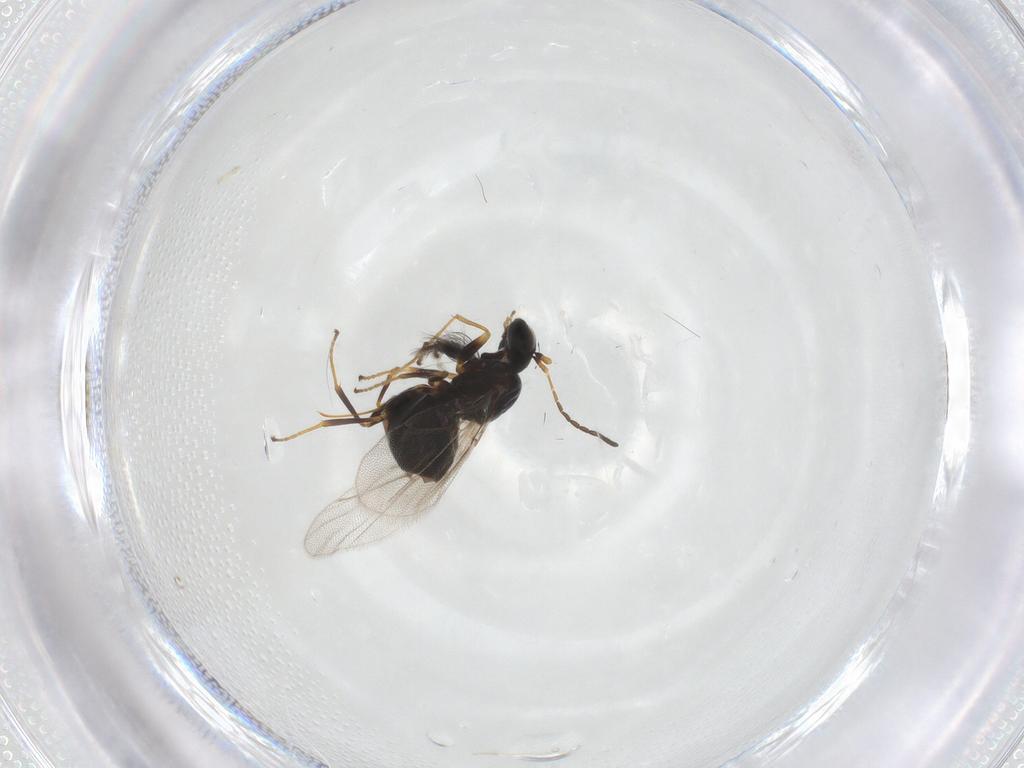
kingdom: Animalia
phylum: Arthropoda
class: Insecta
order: Hymenoptera
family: Cynipidae
